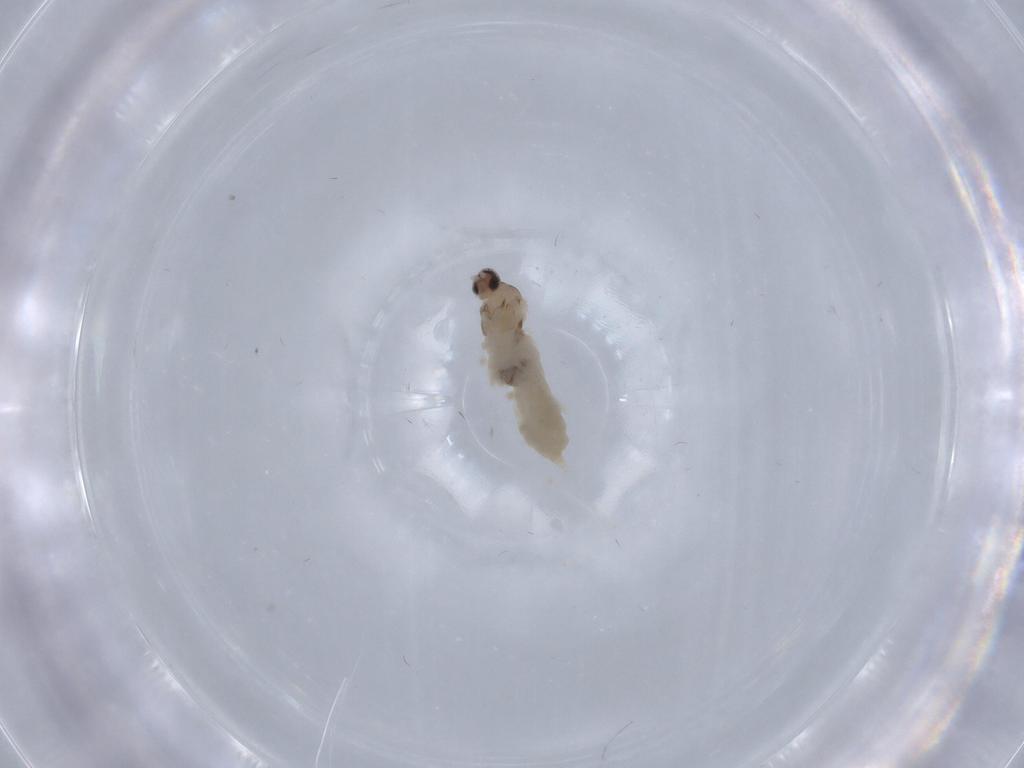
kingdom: Animalia
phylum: Arthropoda
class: Insecta
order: Diptera
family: Cecidomyiidae
